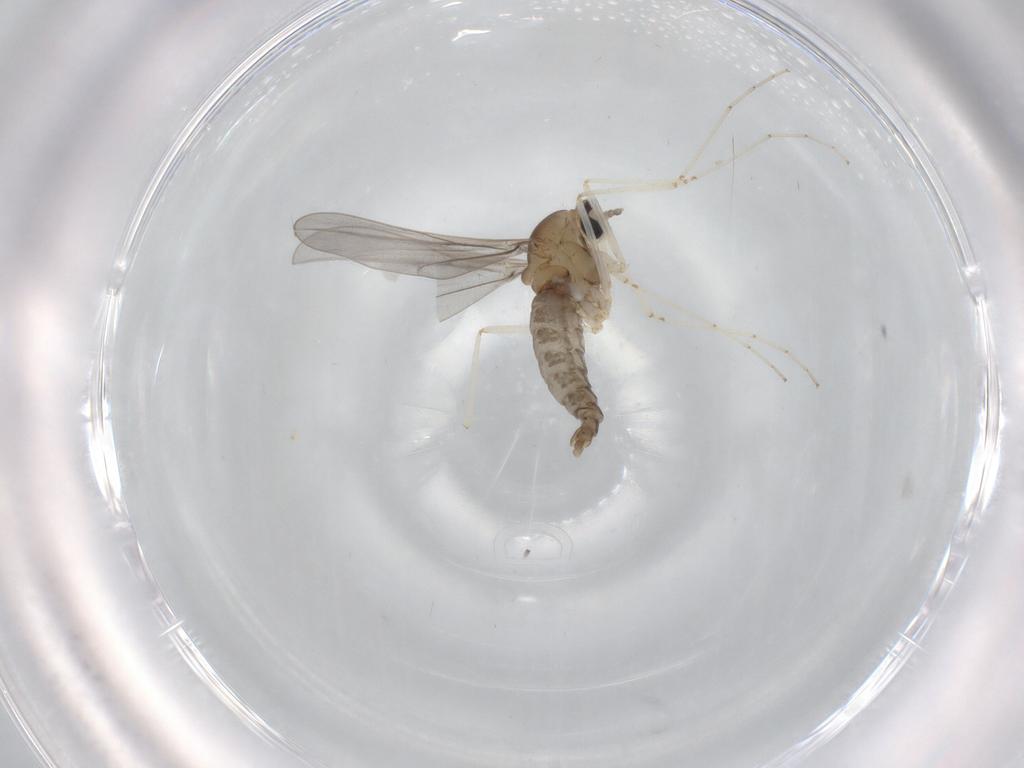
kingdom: Animalia
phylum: Arthropoda
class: Insecta
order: Diptera
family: Cecidomyiidae
